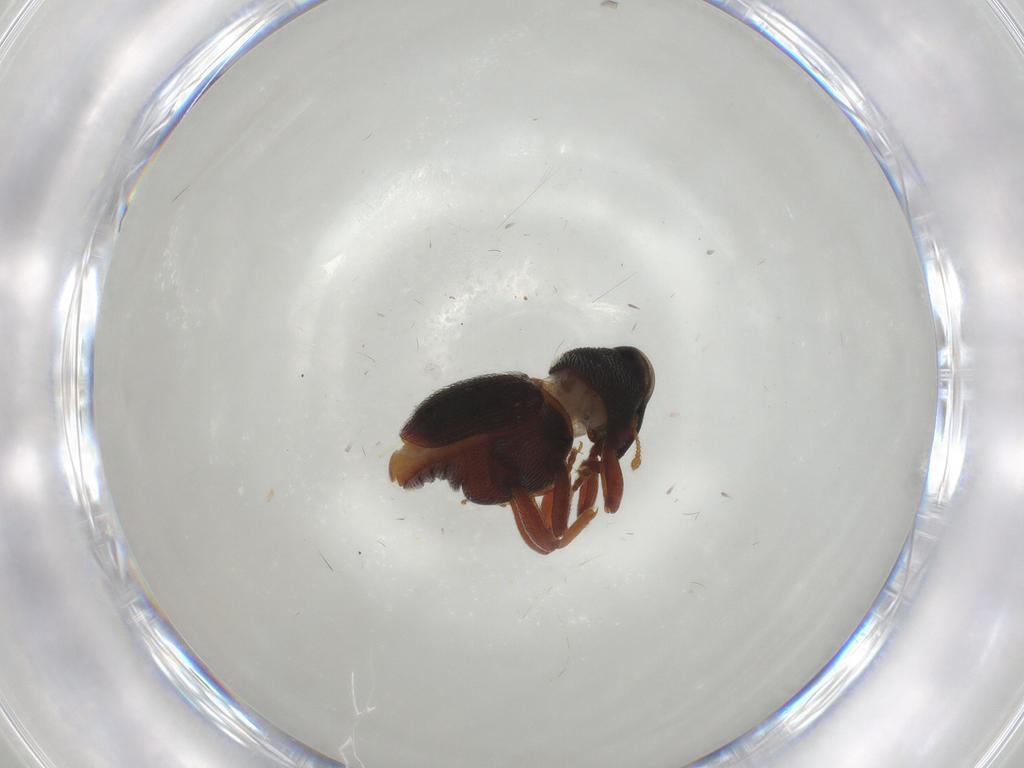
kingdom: Animalia
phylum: Arthropoda
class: Insecta
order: Coleoptera
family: Curculionidae
